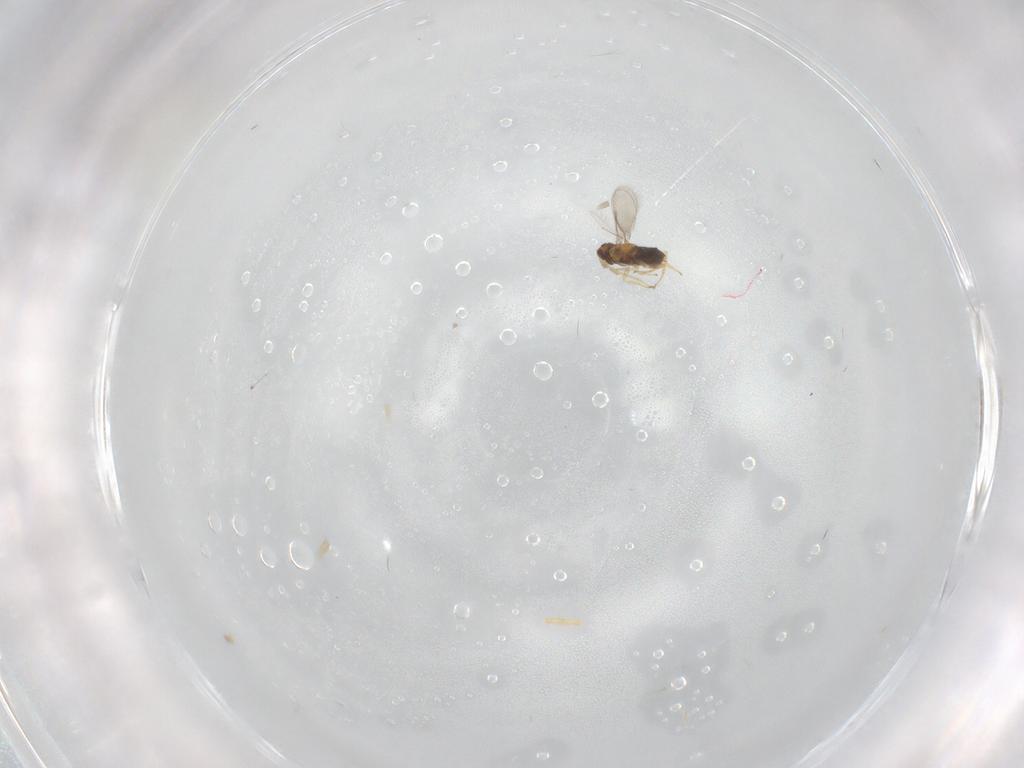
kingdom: Animalia
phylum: Arthropoda
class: Insecta
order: Hymenoptera
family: Aphelinidae
